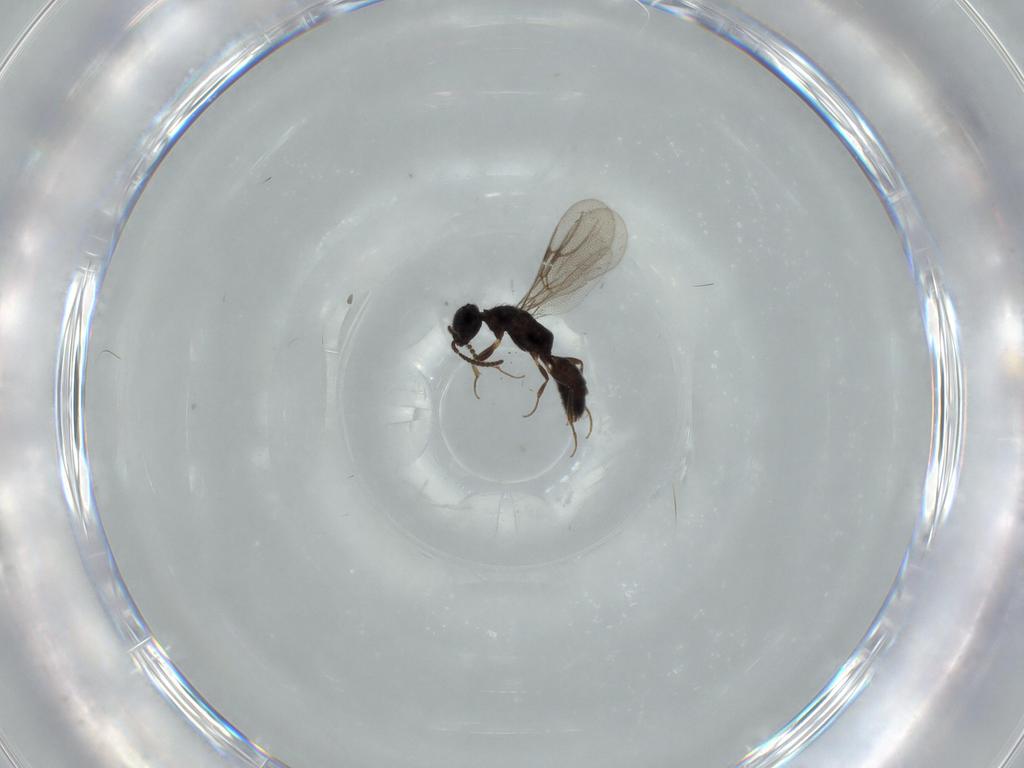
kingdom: Animalia
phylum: Arthropoda
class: Insecta
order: Hymenoptera
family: Bethylidae
